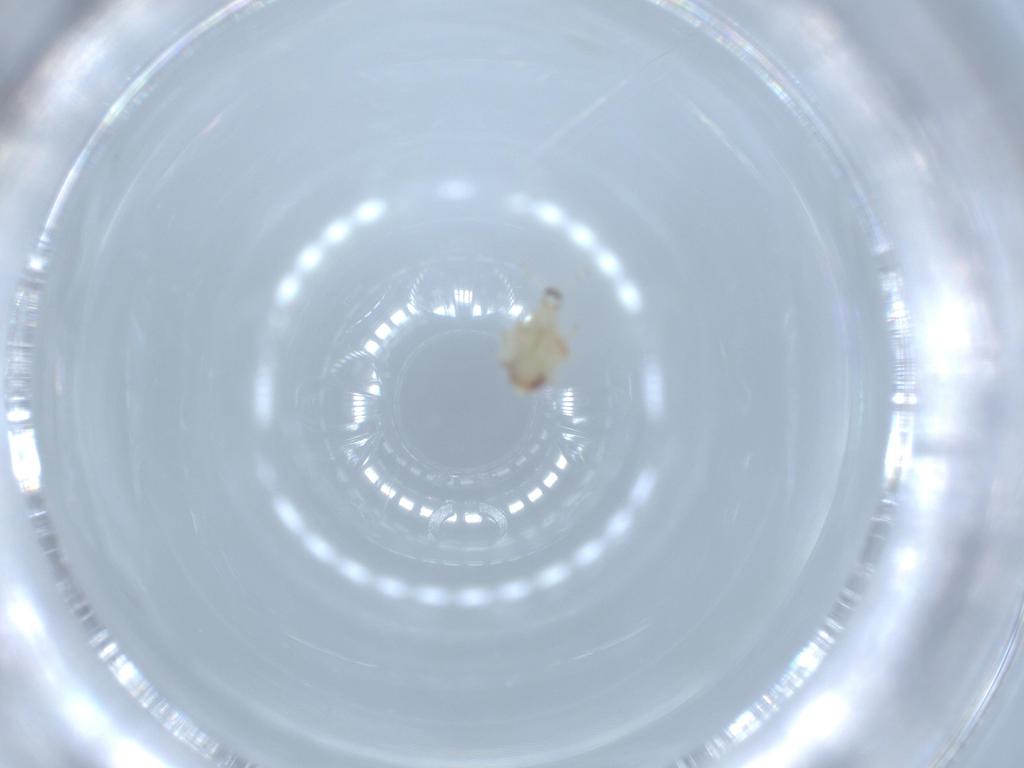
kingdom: Animalia
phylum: Arthropoda
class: Insecta
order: Hemiptera
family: Nogodinidae
